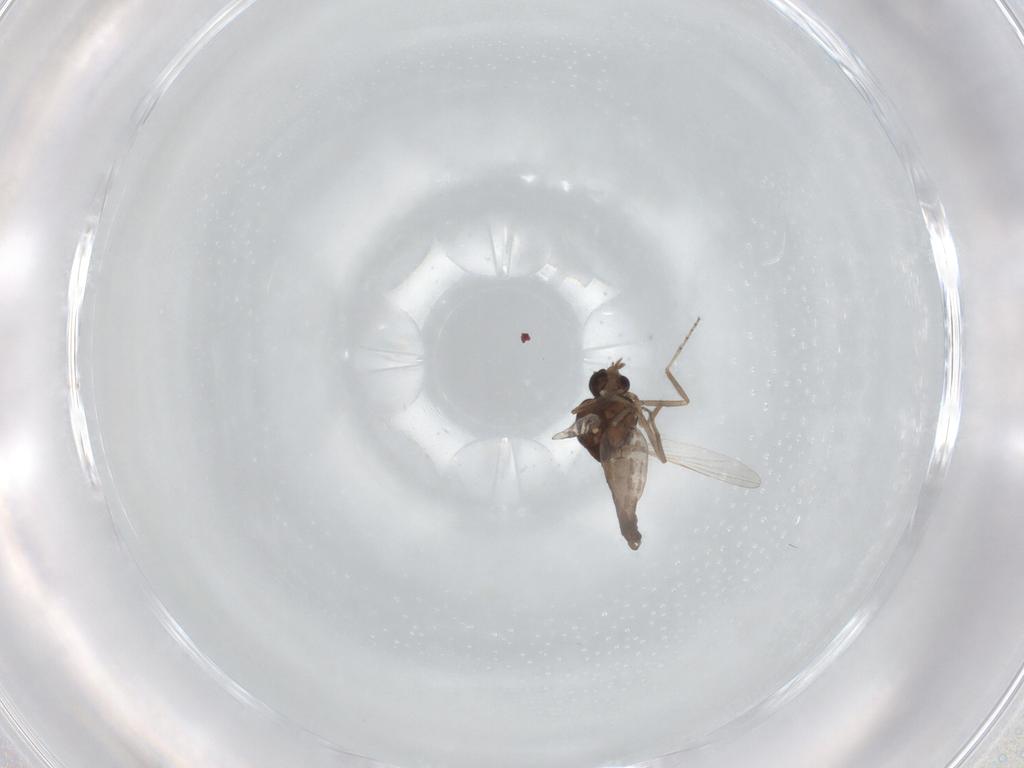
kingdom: Animalia
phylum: Arthropoda
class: Insecta
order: Diptera
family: Ceratopogonidae
